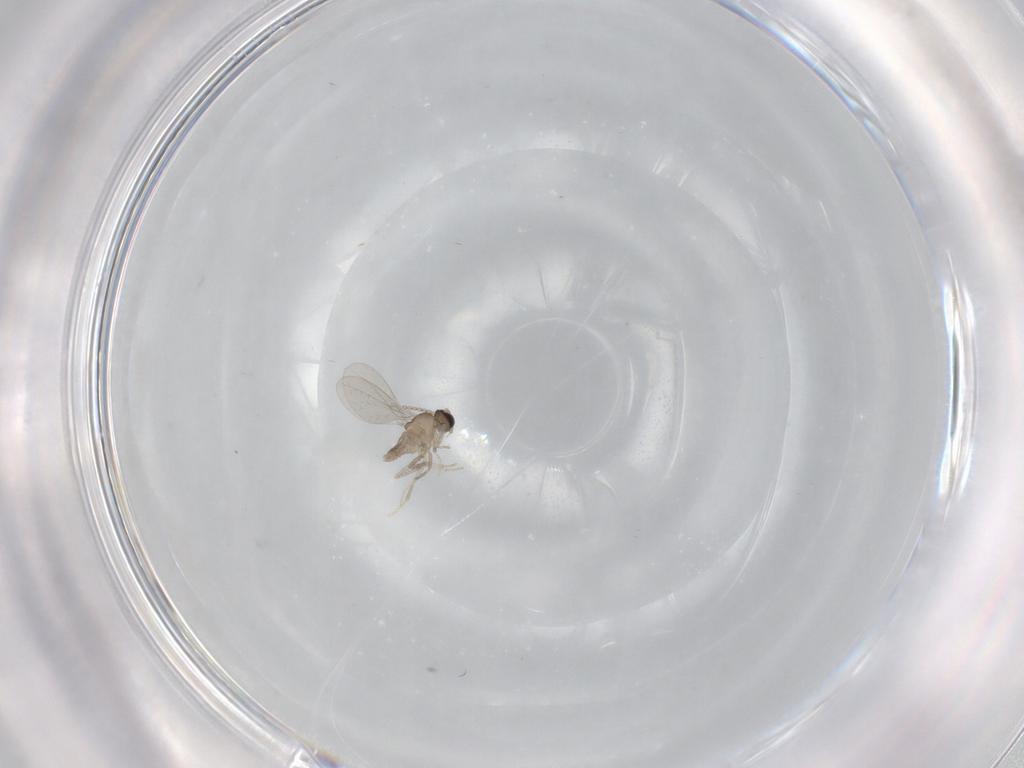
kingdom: Animalia
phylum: Arthropoda
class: Insecta
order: Diptera
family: Cecidomyiidae
